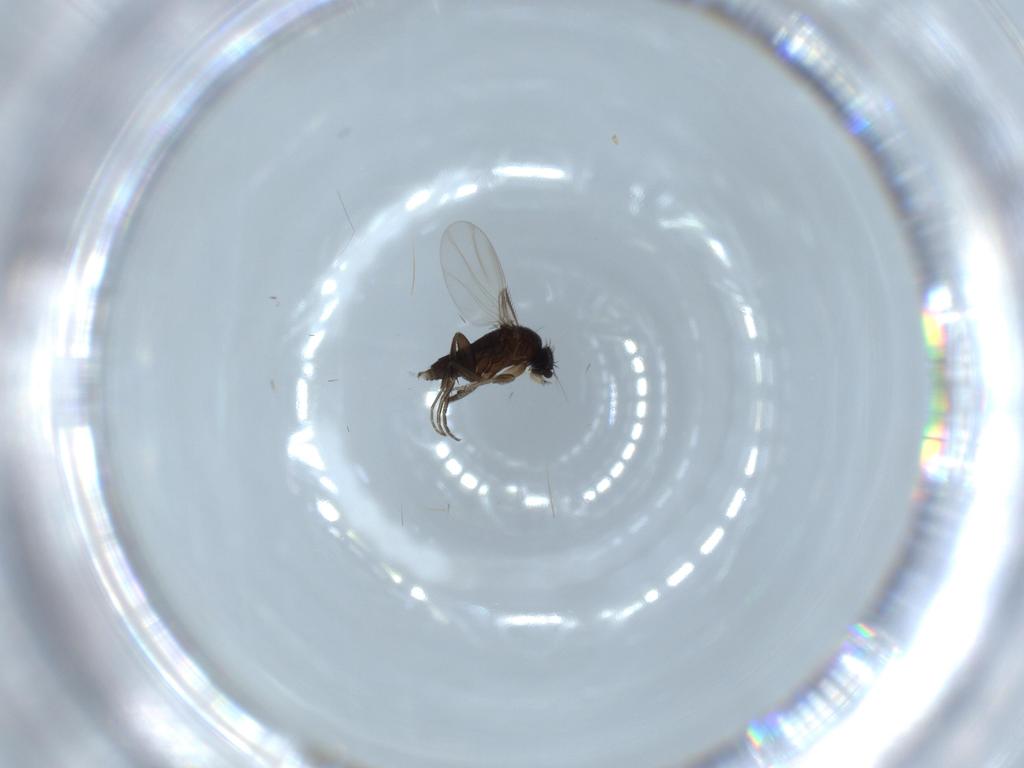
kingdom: Animalia
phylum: Arthropoda
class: Insecta
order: Diptera
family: Phoridae
